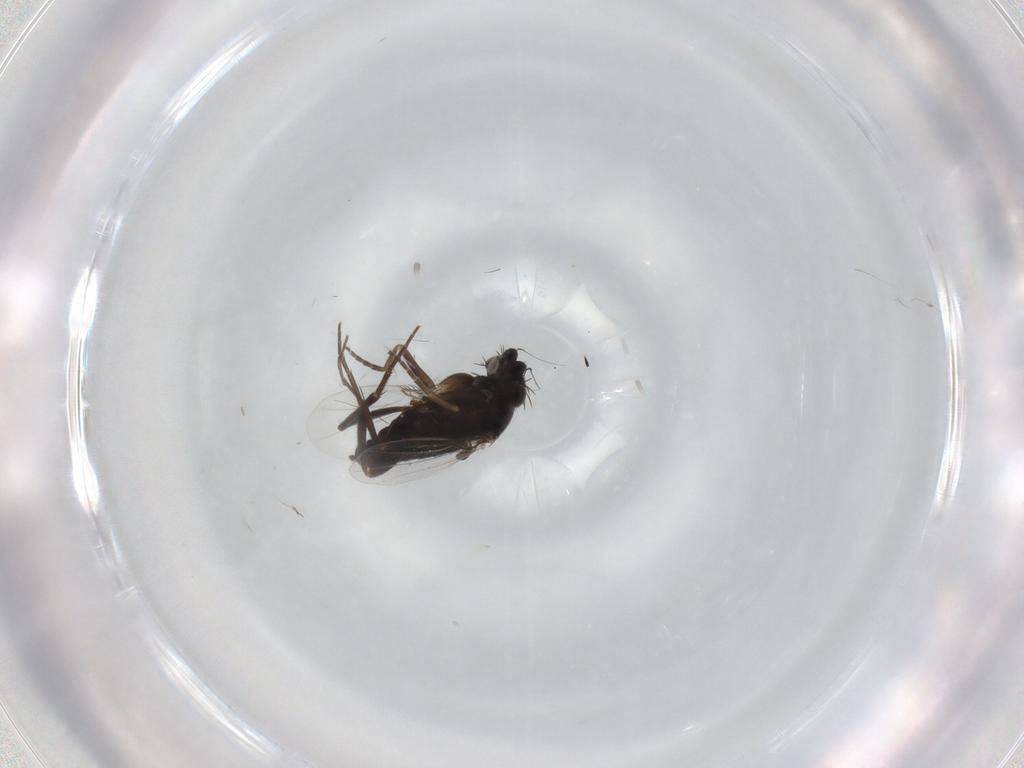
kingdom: Animalia
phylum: Arthropoda
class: Insecta
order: Diptera
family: Phoridae
